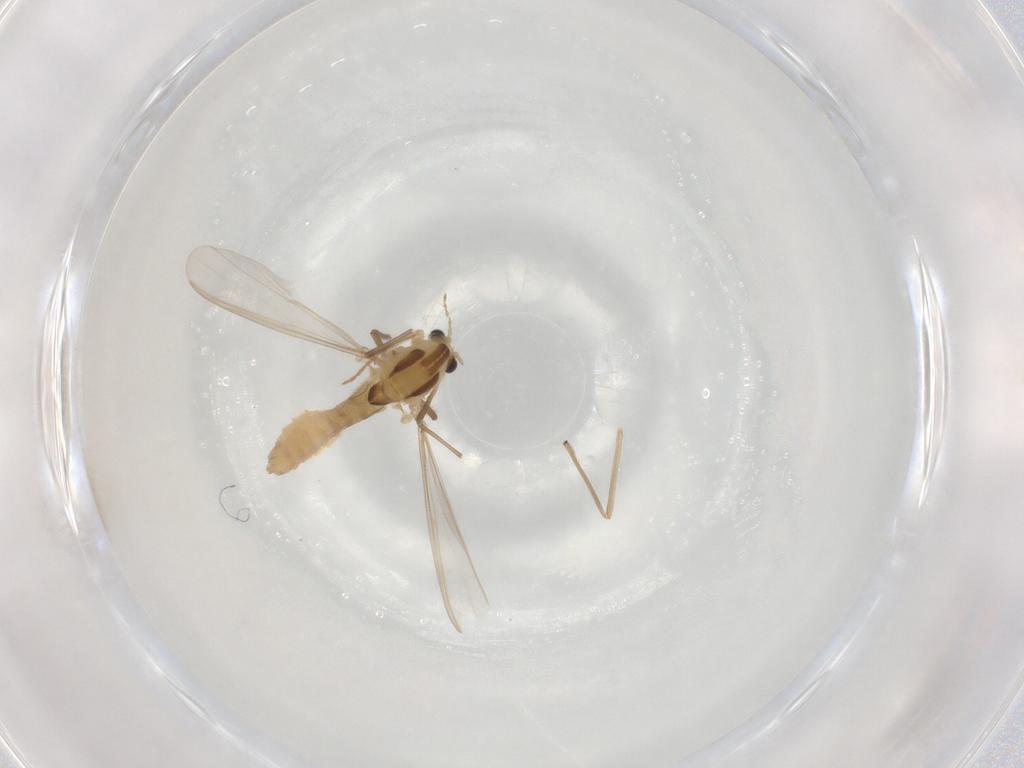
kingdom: Animalia
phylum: Arthropoda
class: Insecta
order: Diptera
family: Chironomidae
